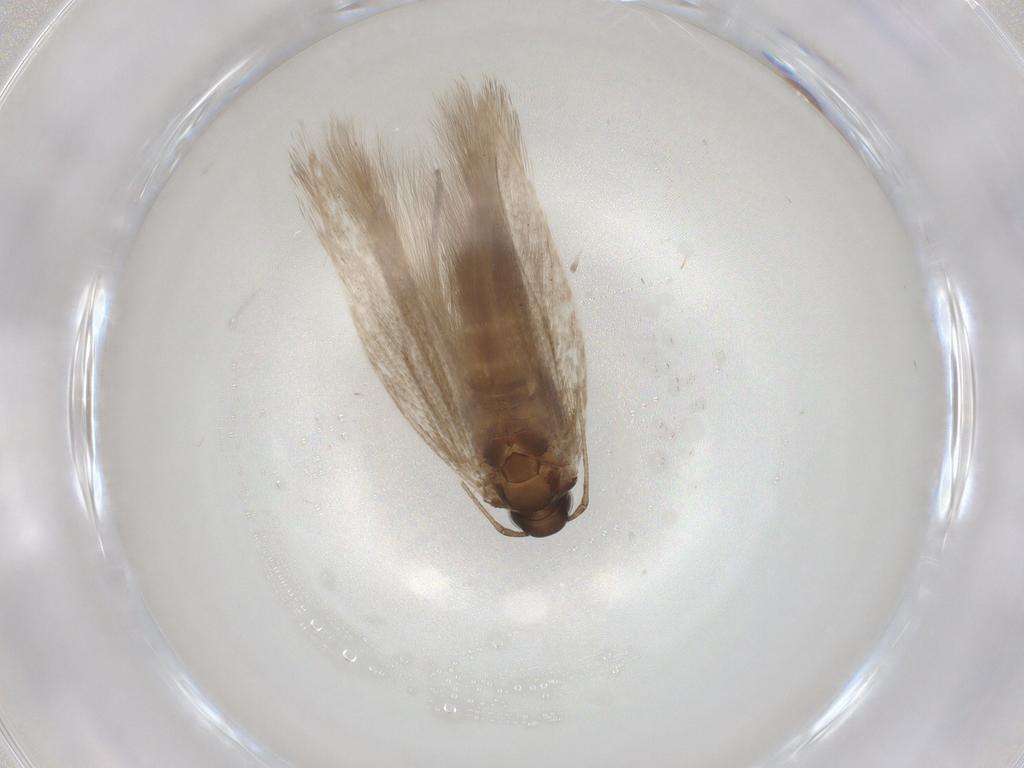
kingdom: Animalia
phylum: Arthropoda
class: Insecta
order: Lepidoptera
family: Gelechiidae
